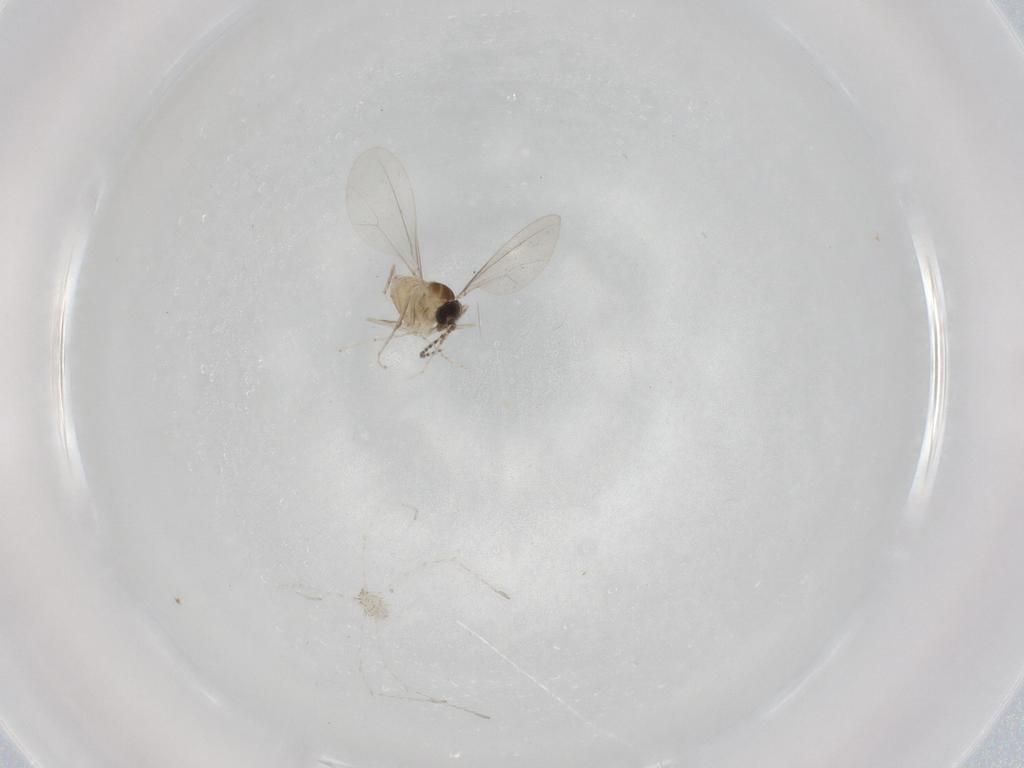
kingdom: Animalia
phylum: Arthropoda
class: Insecta
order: Diptera
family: Cecidomyiidae
